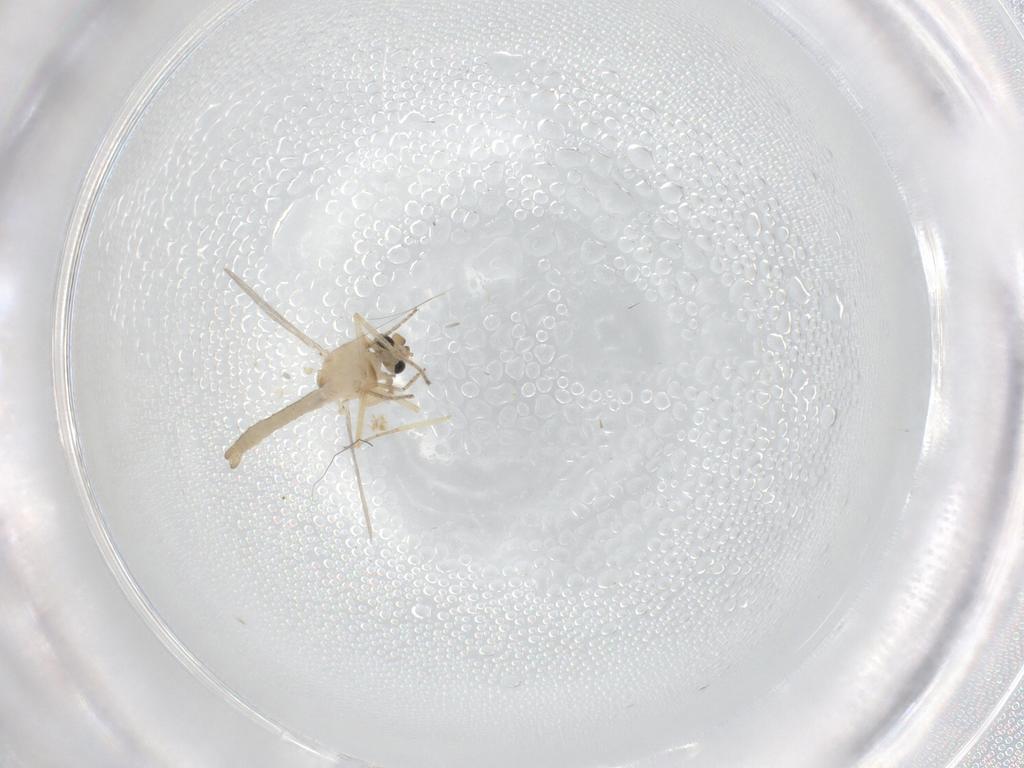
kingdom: Animalia
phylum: Arthropoda
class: Insecta
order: Diptera
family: Ceratopogonidae
